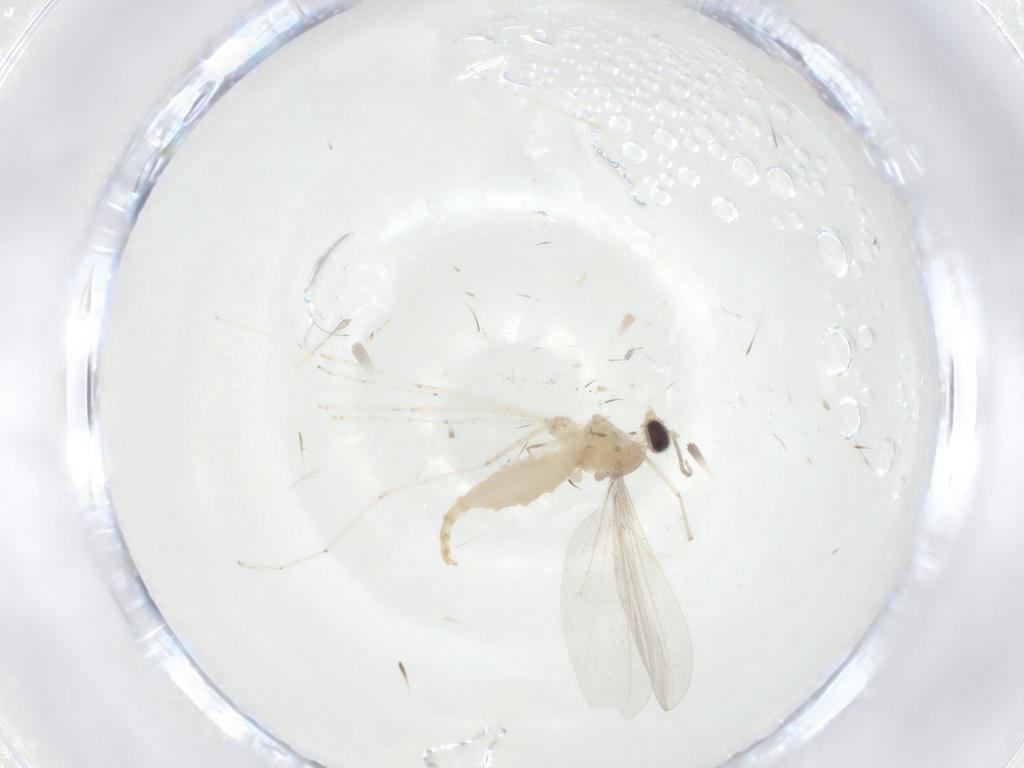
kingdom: Animalia
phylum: Arthropoda
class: Insecta
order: Diptera
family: Cecidomyiidae
